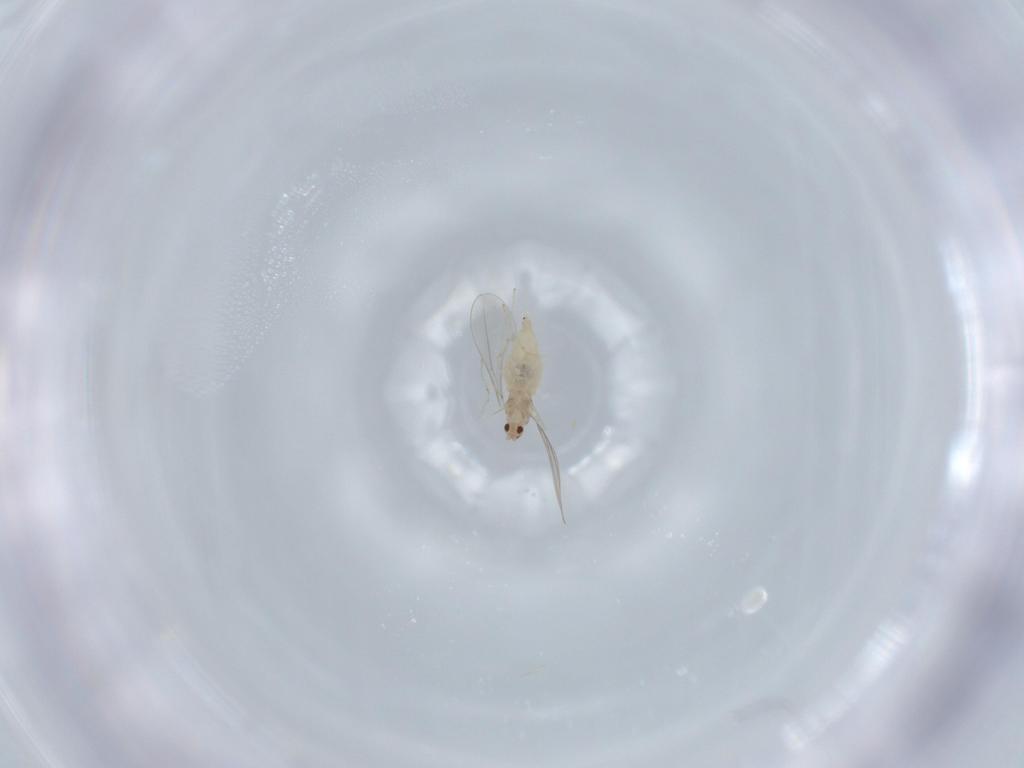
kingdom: Animalia
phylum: Arthropoda
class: Insecta
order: Diptera
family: Cecidomyiidae
